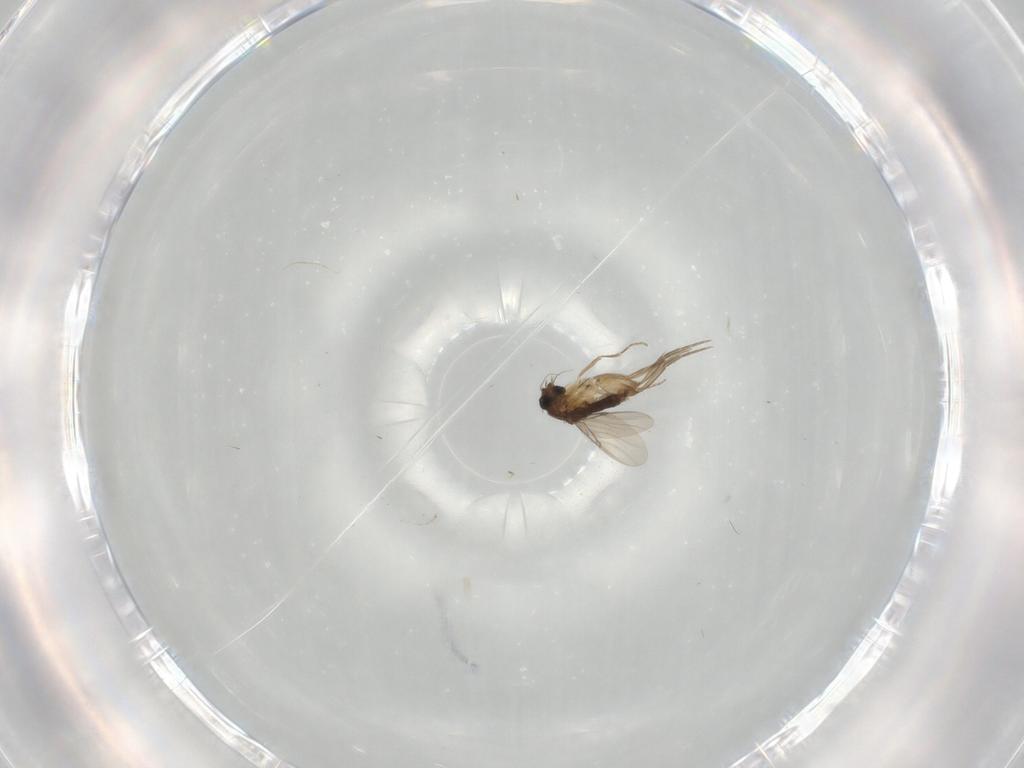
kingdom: Animalia
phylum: Arthropoda
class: Insecta
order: Diptera
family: Phoridae
